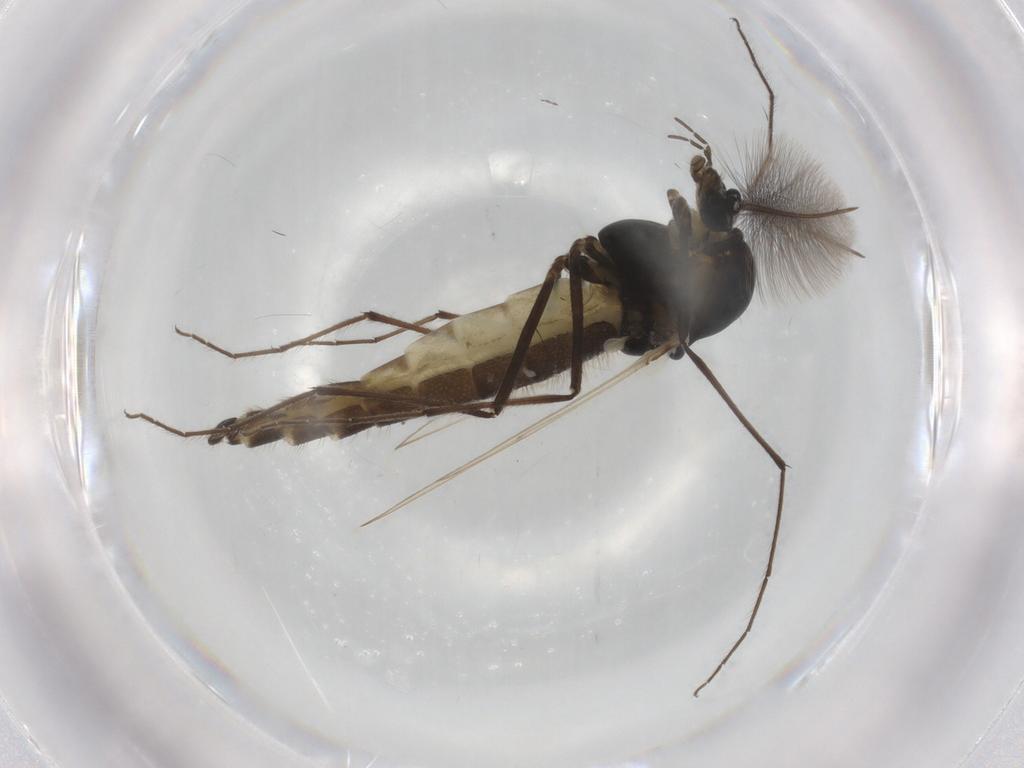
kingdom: Animalia
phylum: Arthropoda
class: Insecta
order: Diptera
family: Chironomidae
